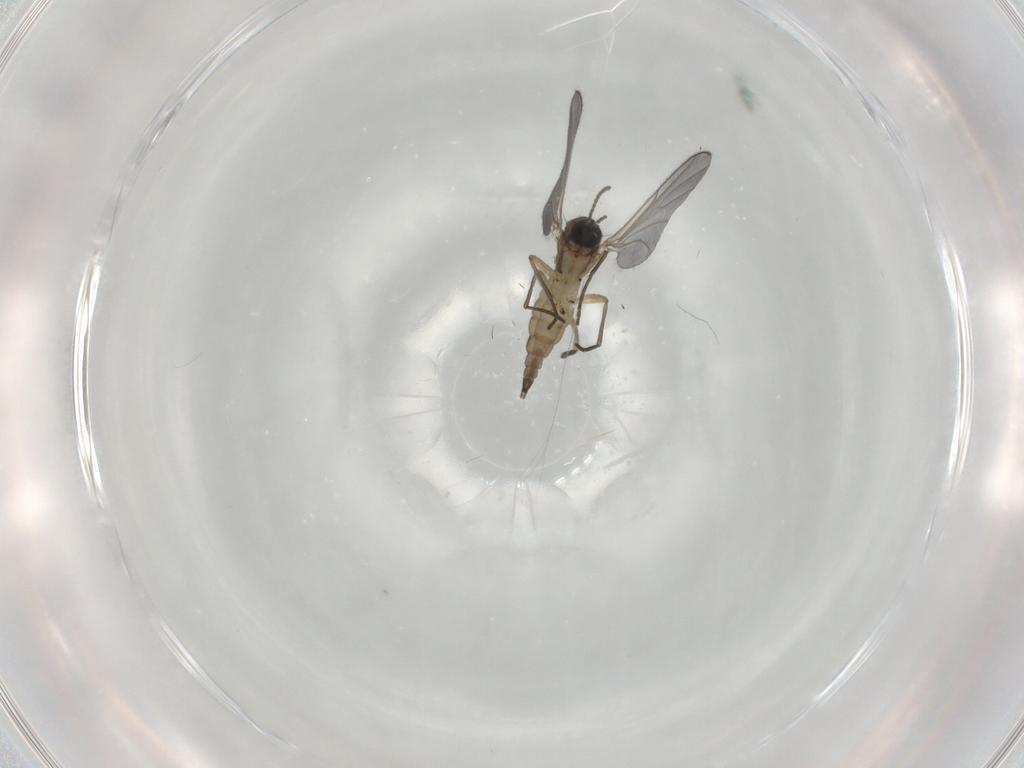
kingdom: Animalia
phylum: Arthropoda
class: Insecta
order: Diptera
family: Sciaridae
